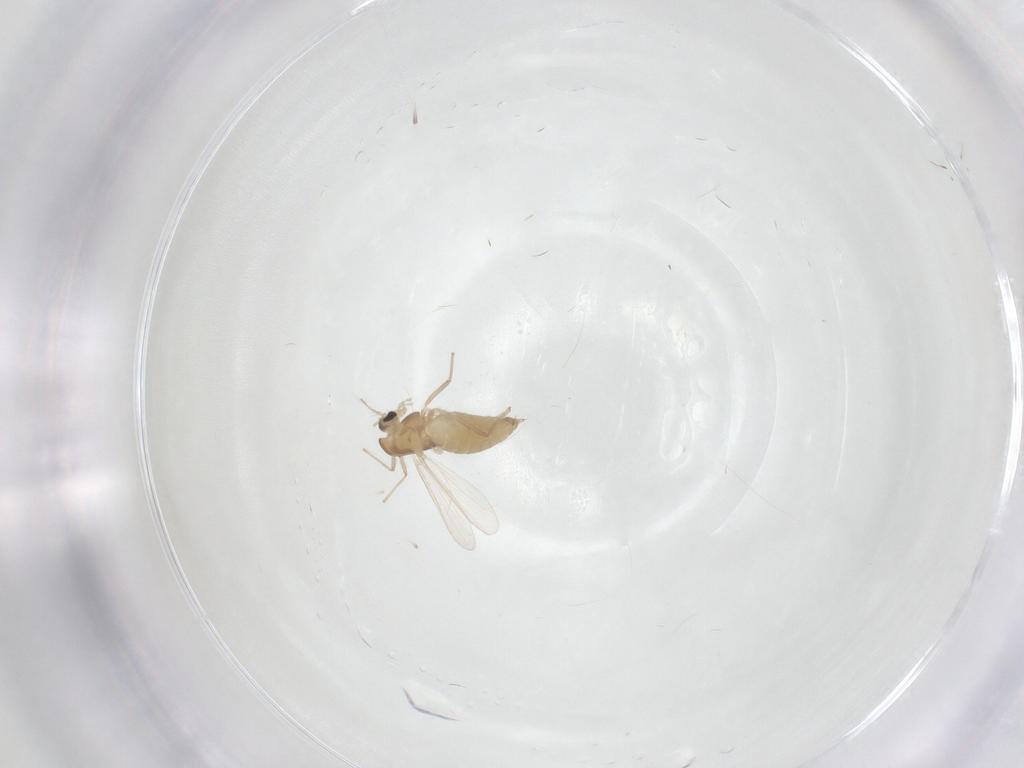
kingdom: Animalia
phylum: Arthropoda
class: Insecta
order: Diptera
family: Chironomidae
